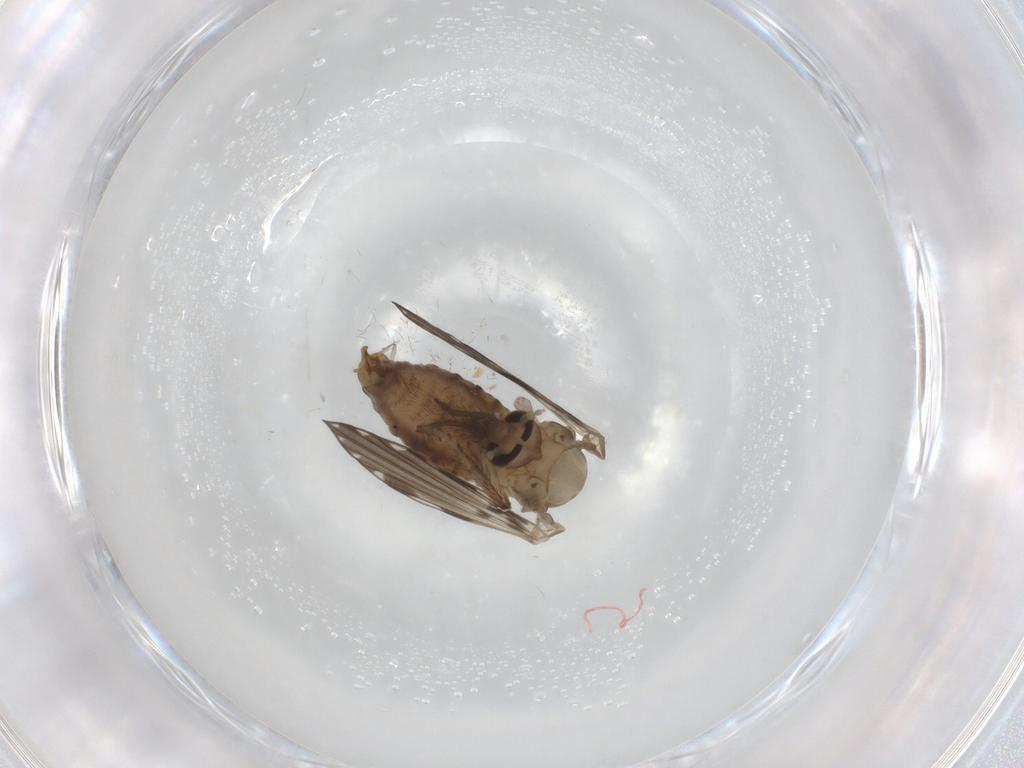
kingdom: Animalia
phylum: Arthropoda
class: Insecta
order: Diptera
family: Psychodidae
